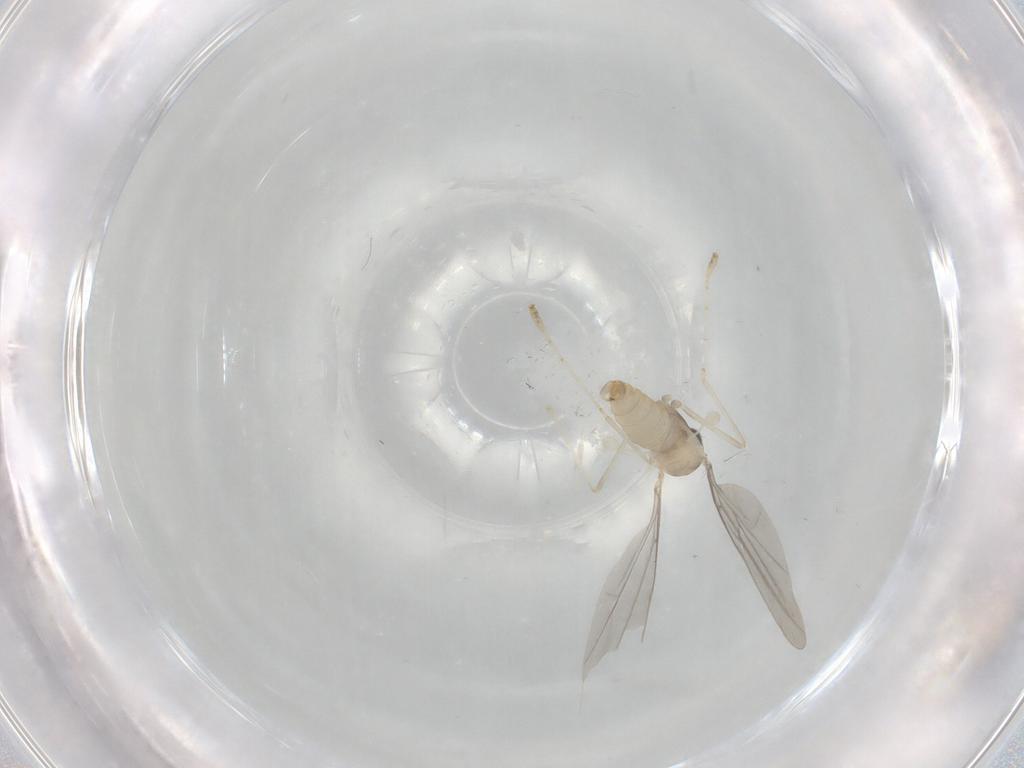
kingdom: Animalia
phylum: Arthropoda
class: Insecta
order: Diptera
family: Cecidomyiidae
